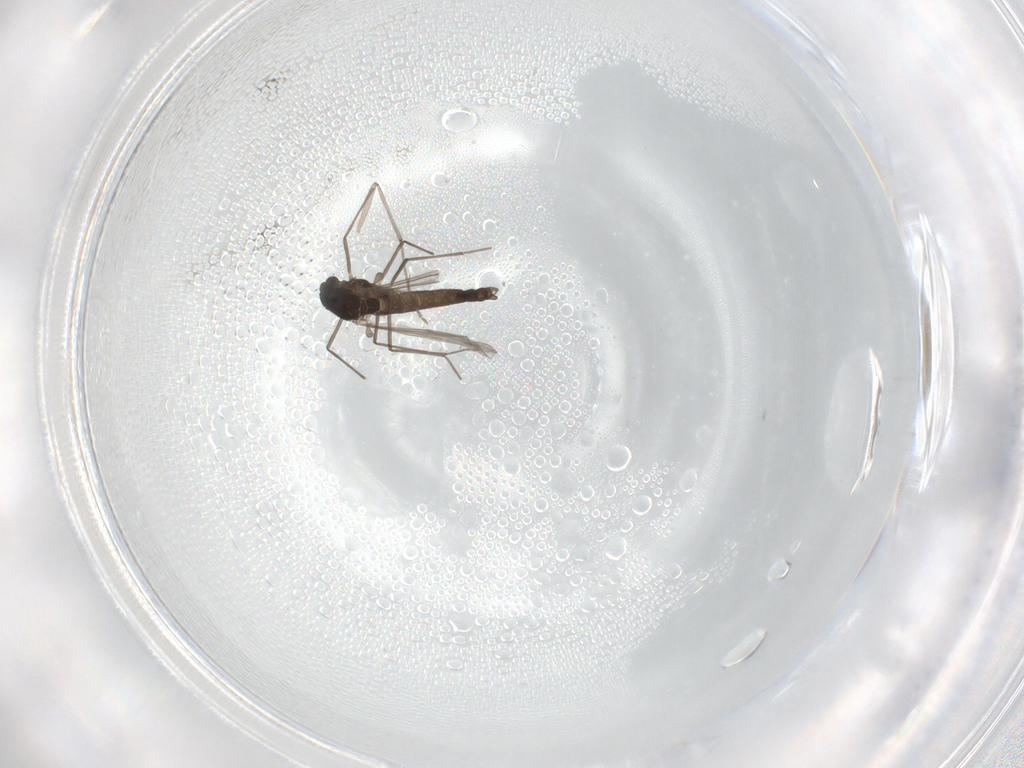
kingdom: Animalia
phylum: Arthropoda
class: Insecta
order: Diptera
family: Chironomidae
